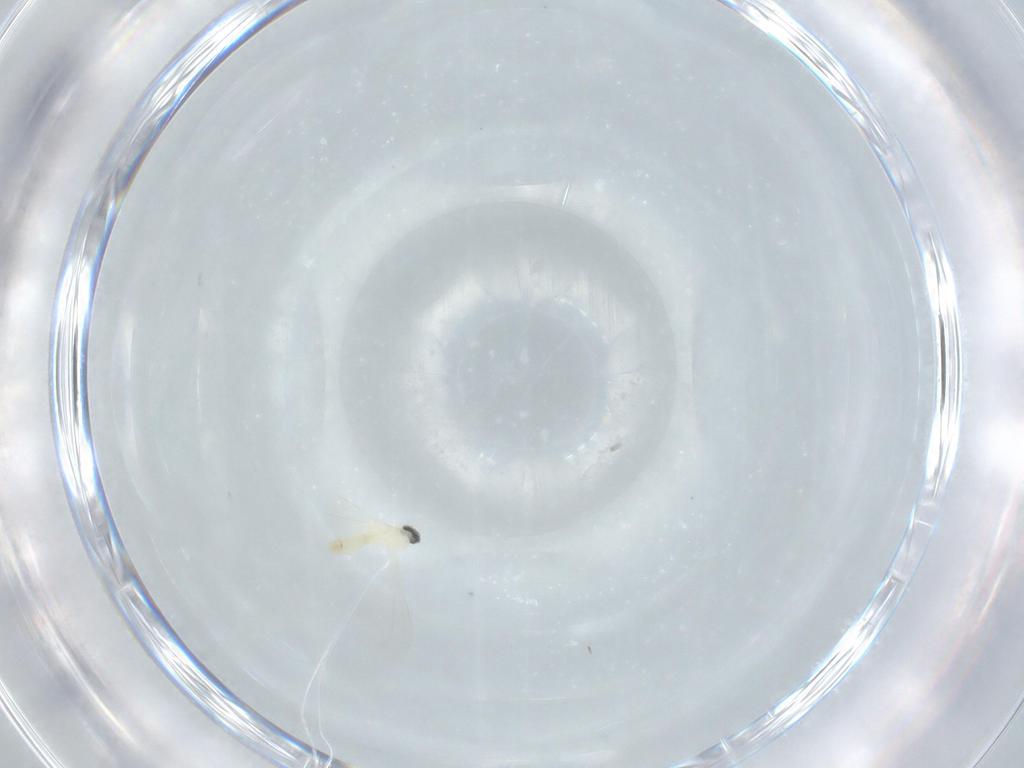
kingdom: Animalia
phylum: Arthropoda
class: Insecta
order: Diptera
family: Cecidomyiidae
